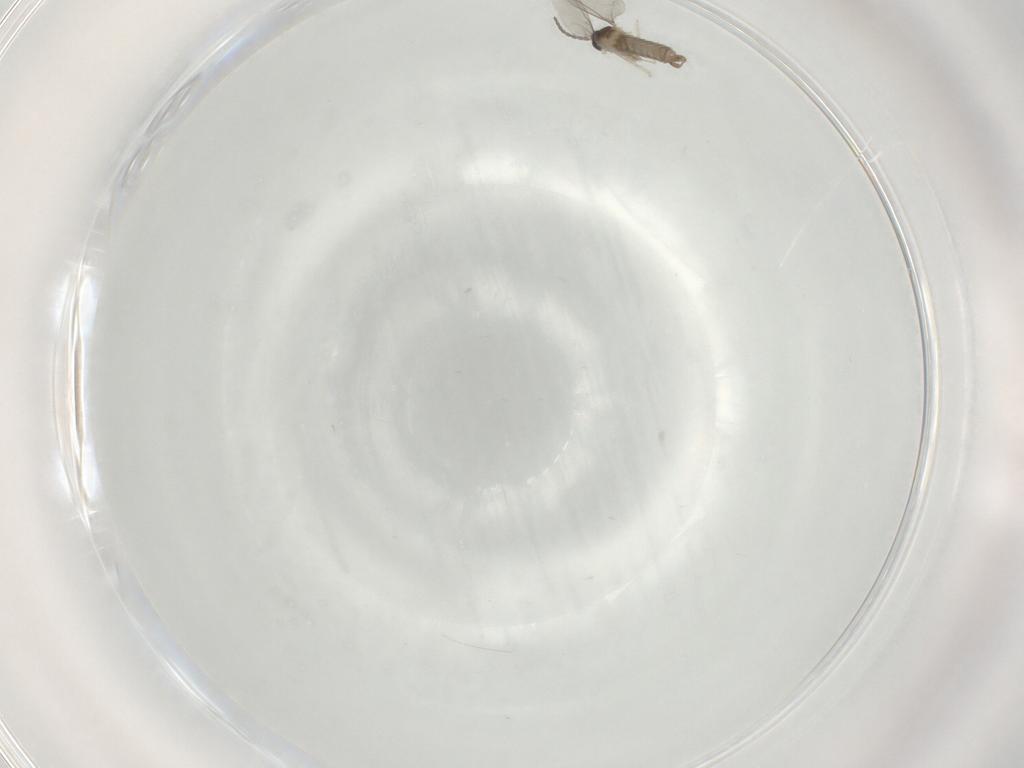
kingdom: Animalia
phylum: Arthropoda
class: Insecta
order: Diptera
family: Cecidomyiidae
